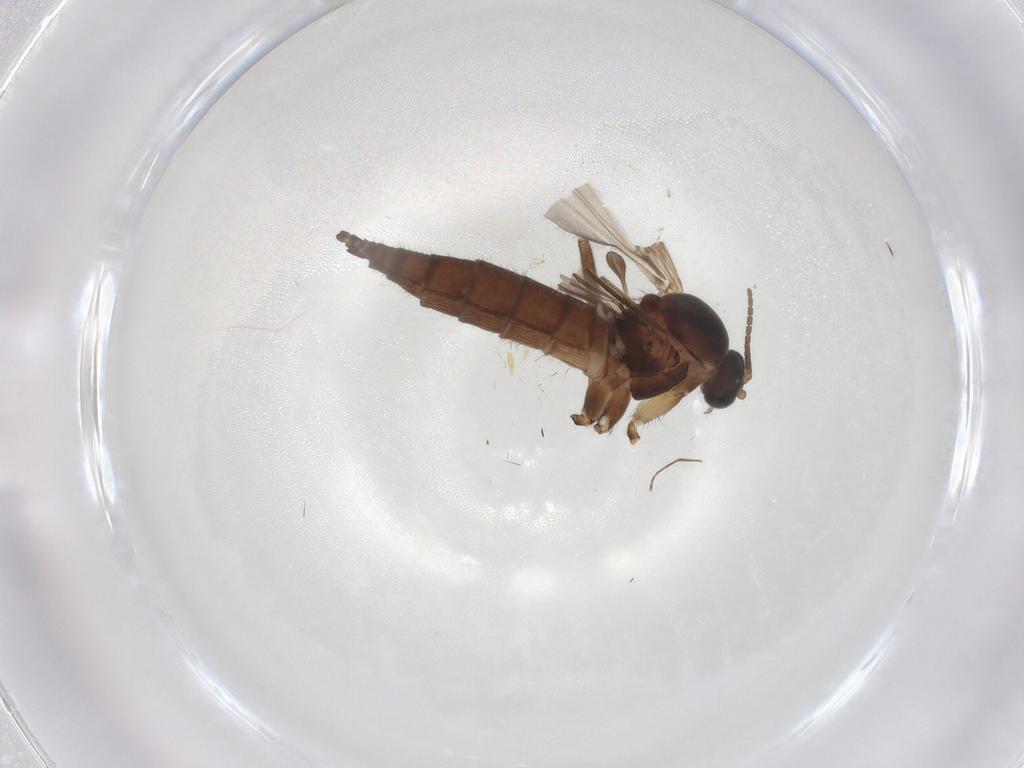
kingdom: Animalia
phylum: Arthropoda
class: Insecta
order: Diptera
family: Sciaridae
